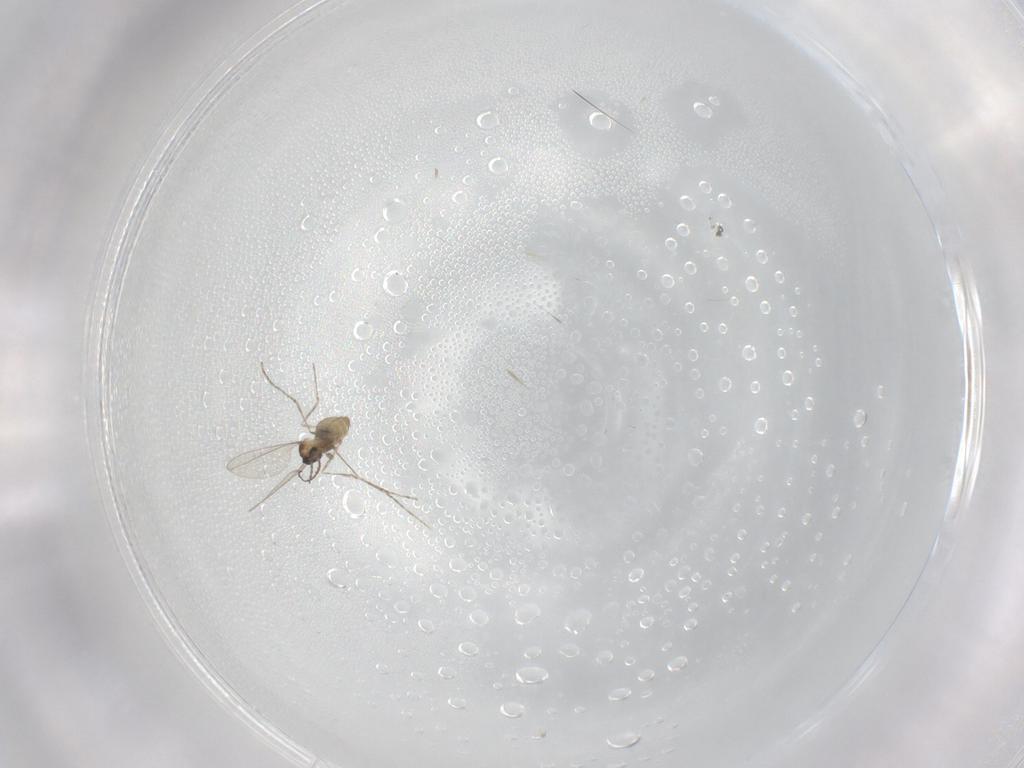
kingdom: Animalia
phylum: Arthropoda
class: Insecta
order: Diptera
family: Cecidomyiidae
